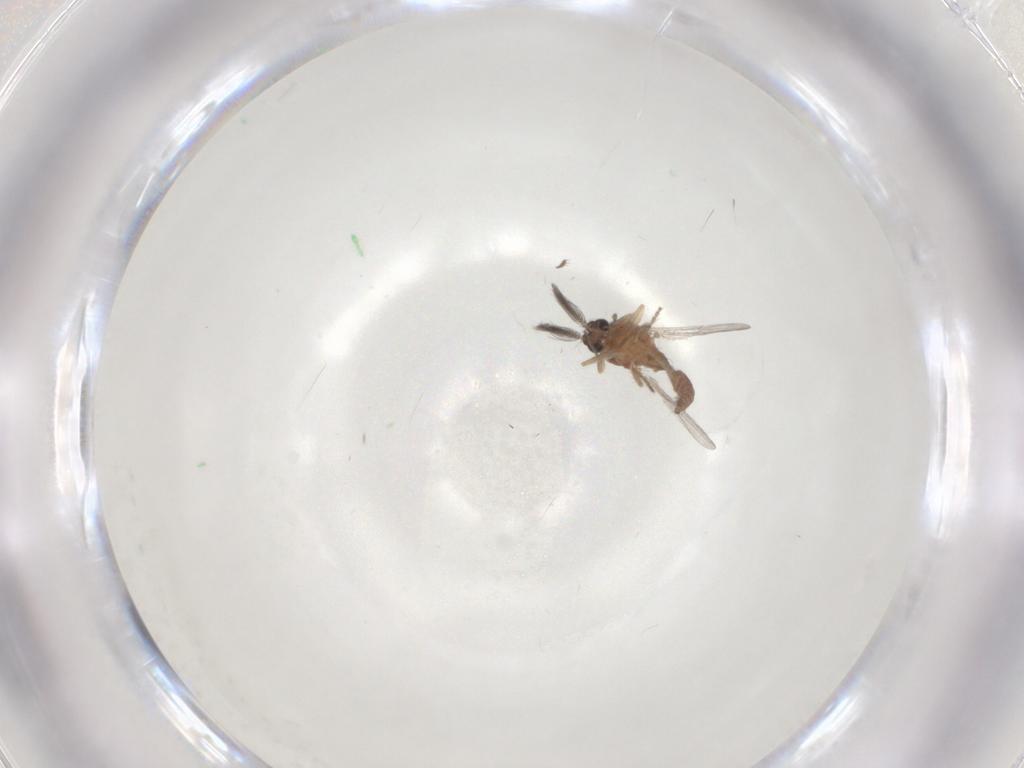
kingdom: Animalia
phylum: Arthropoda
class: Insecta
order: Diptera
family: Ceratopogonidae
